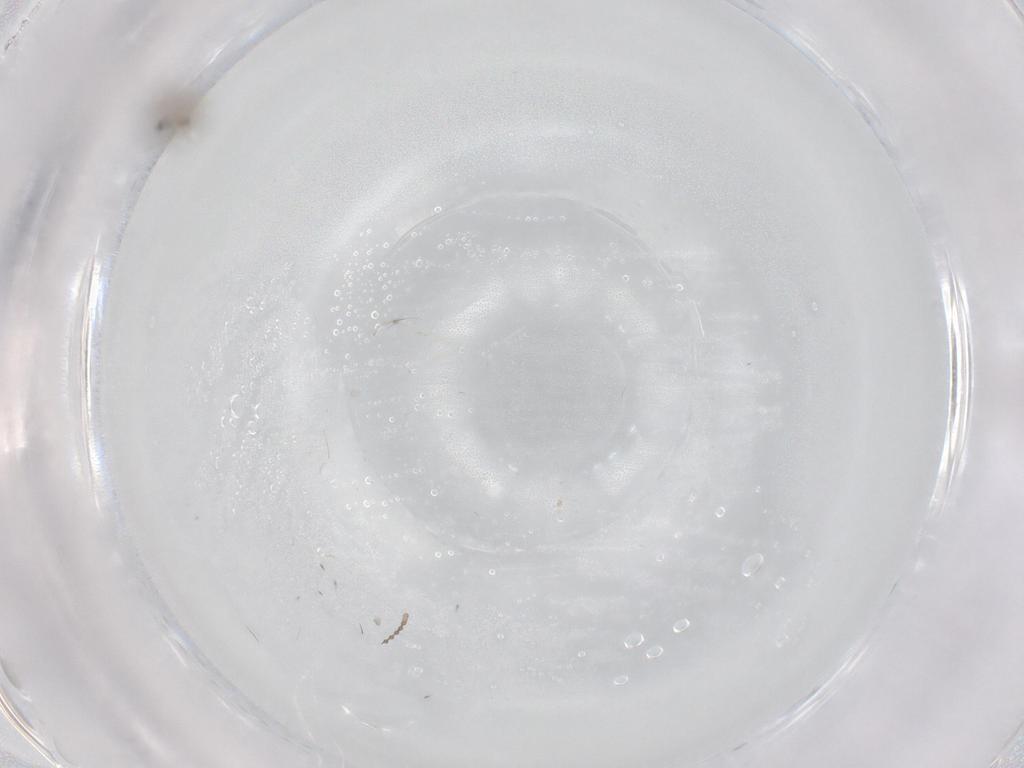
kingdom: Animalia
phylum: Arthropoda
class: Insecta
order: Diptera
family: Cecidomyiidae
